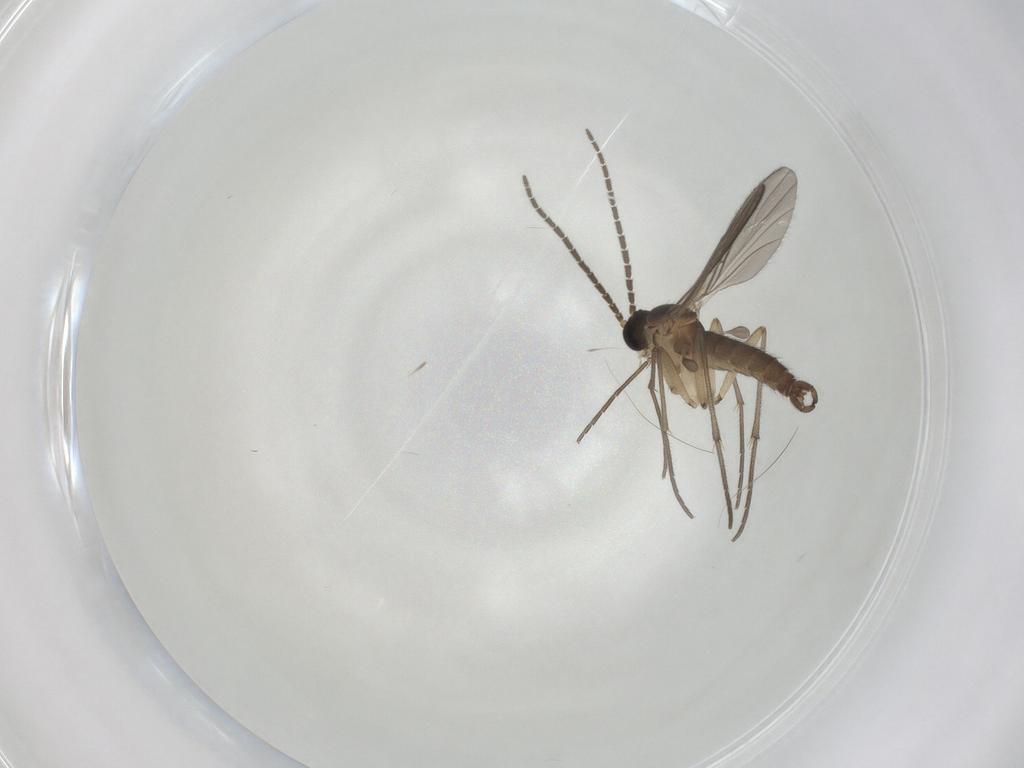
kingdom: Animalia
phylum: Arthropoda
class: Insecta
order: Diptera
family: Sciaridae
